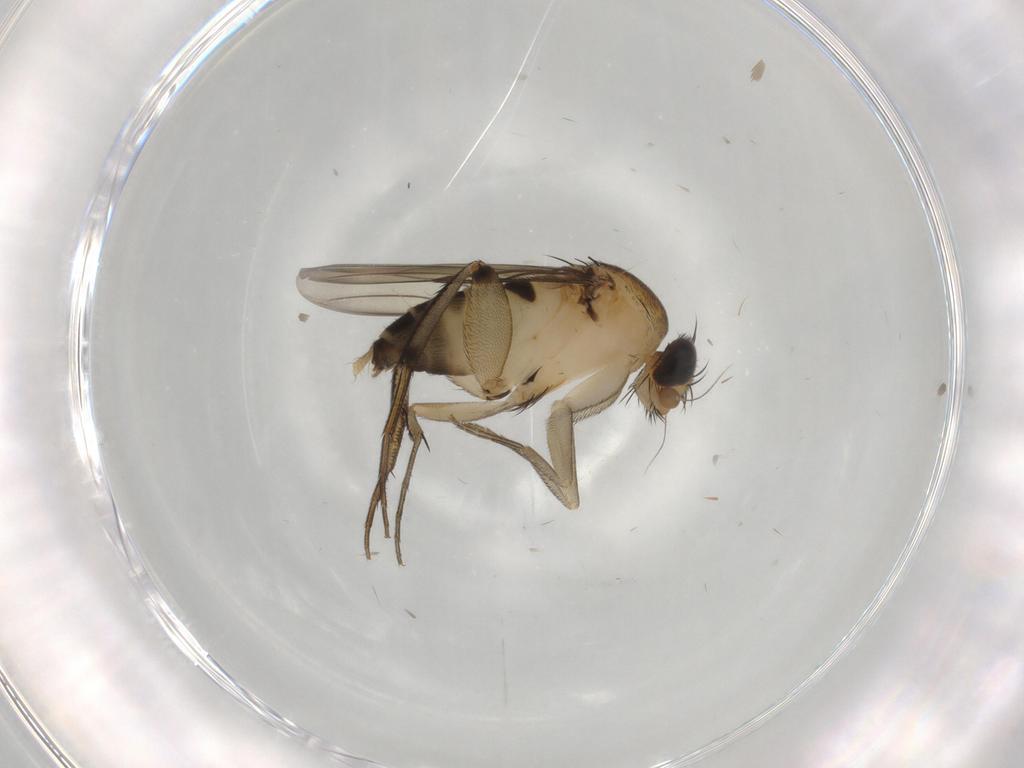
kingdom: Animalia
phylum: Arthropoda
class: Insecta
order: Diptera
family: Phoridae
